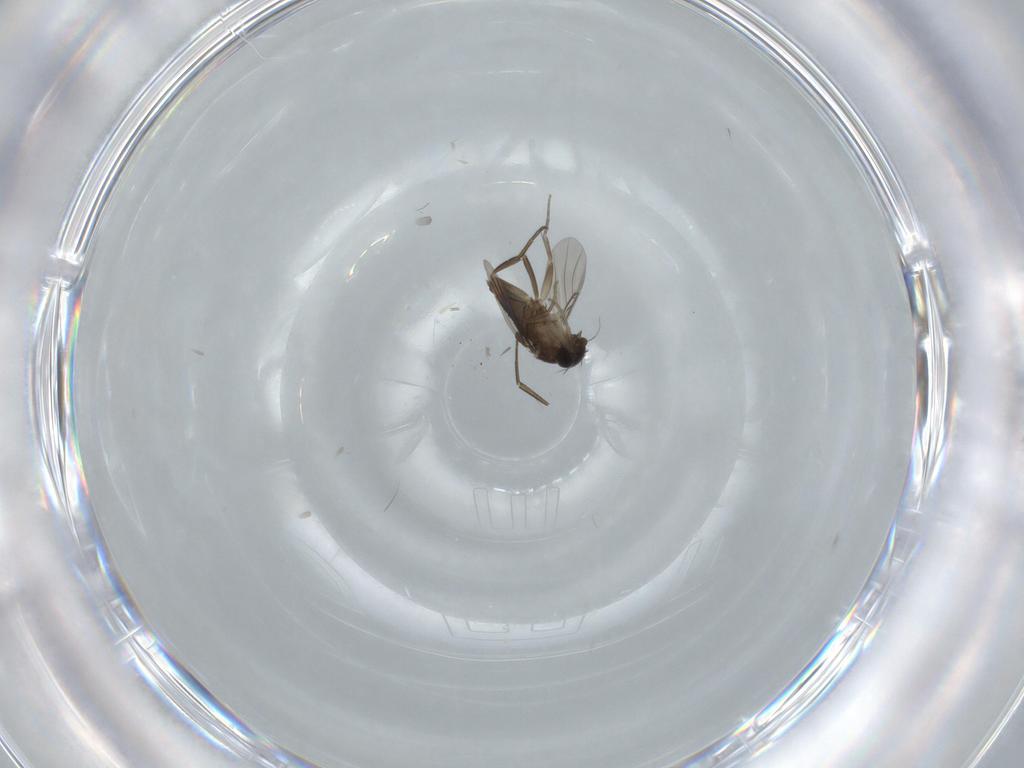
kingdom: Animalia
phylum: Arthropoda
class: Insecta
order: Diptera
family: Phoridae
